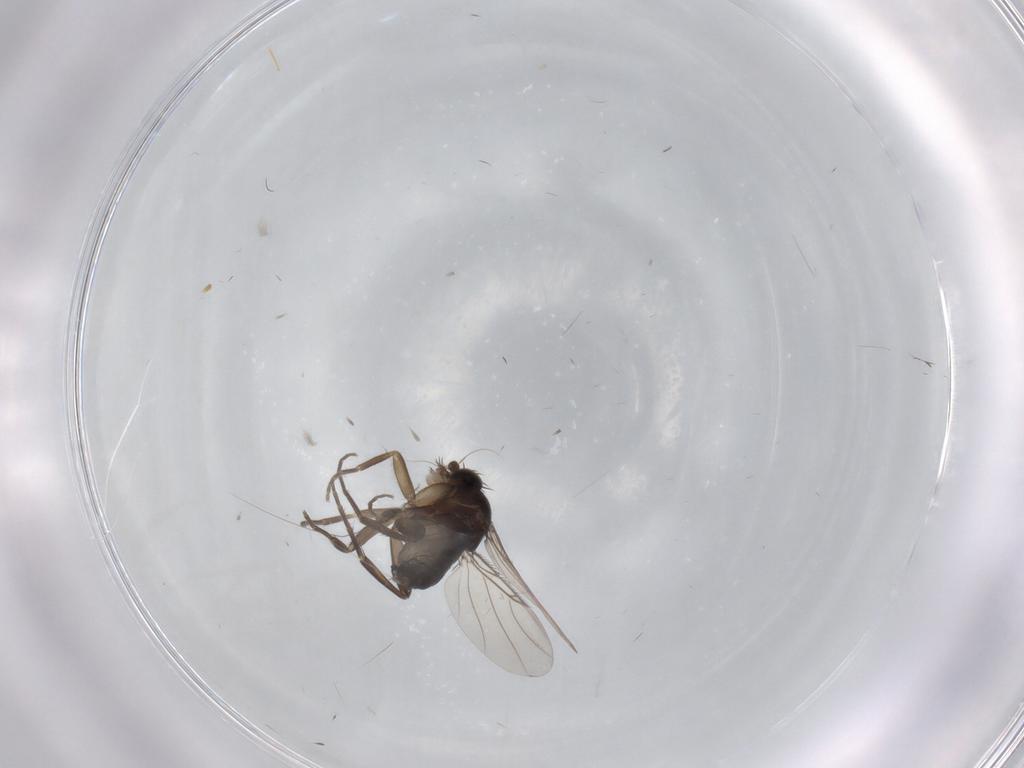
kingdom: Animalia
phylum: Arthropoda
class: Insecta
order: Diptera
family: Phoridae
